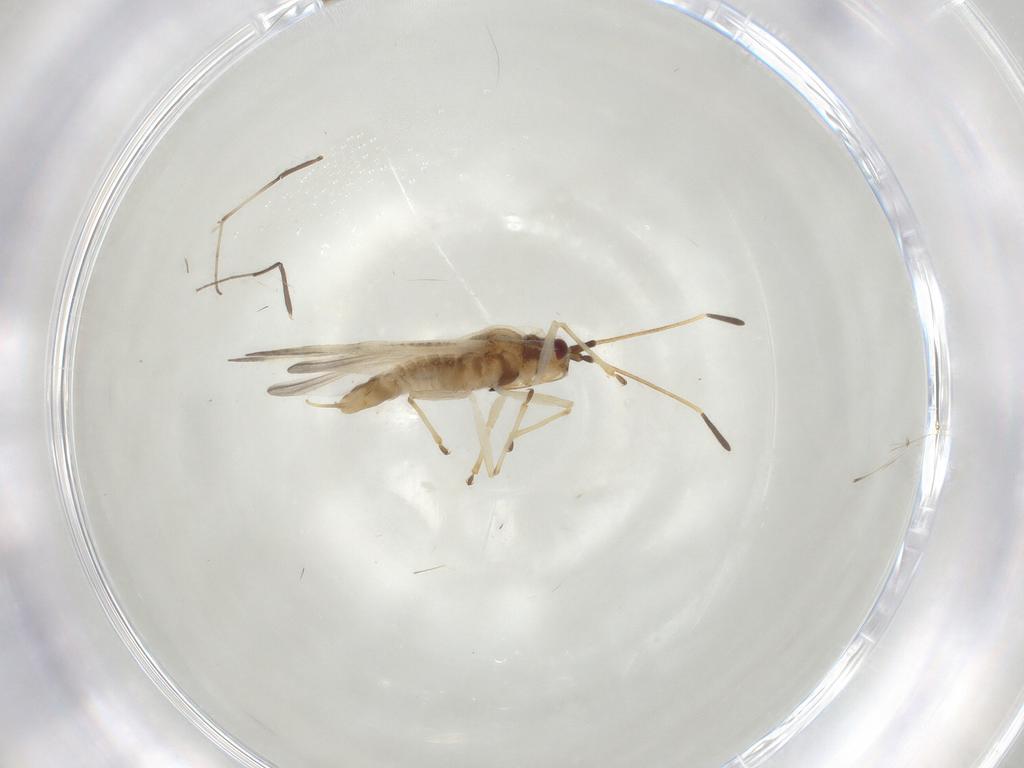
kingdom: Animalia
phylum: Arthropoda
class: Insecta
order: Hemiptera
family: Tingidae
